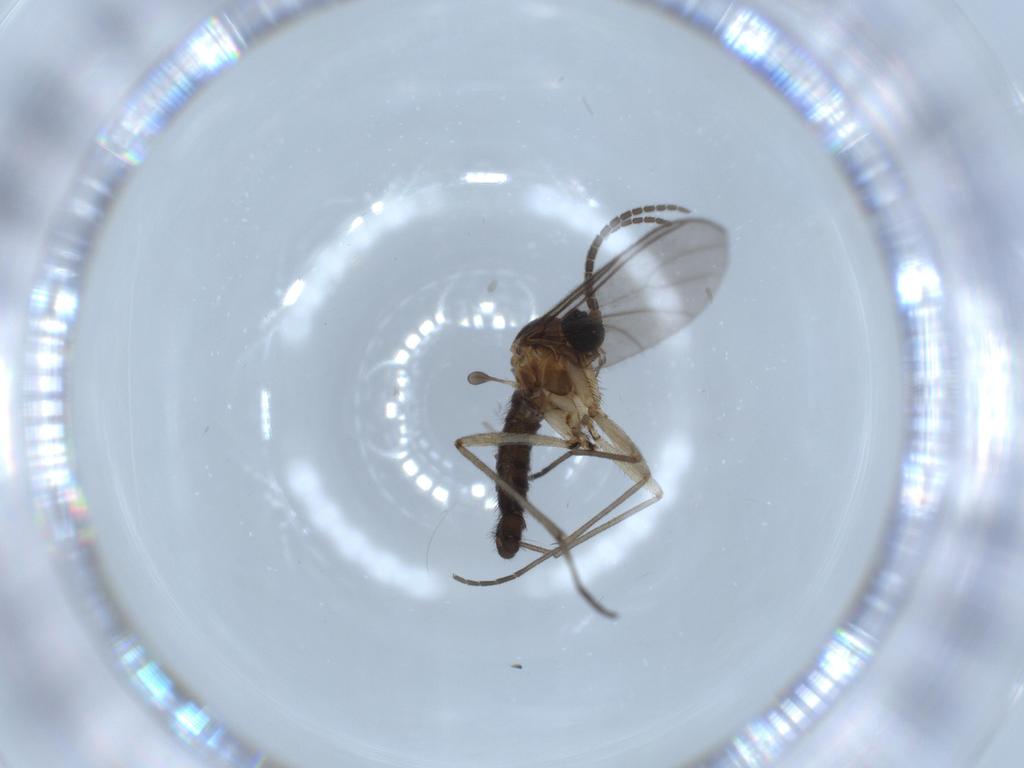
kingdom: Animalia
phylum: Arthropoda
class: Insecta
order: Diptera
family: Sciaridae
